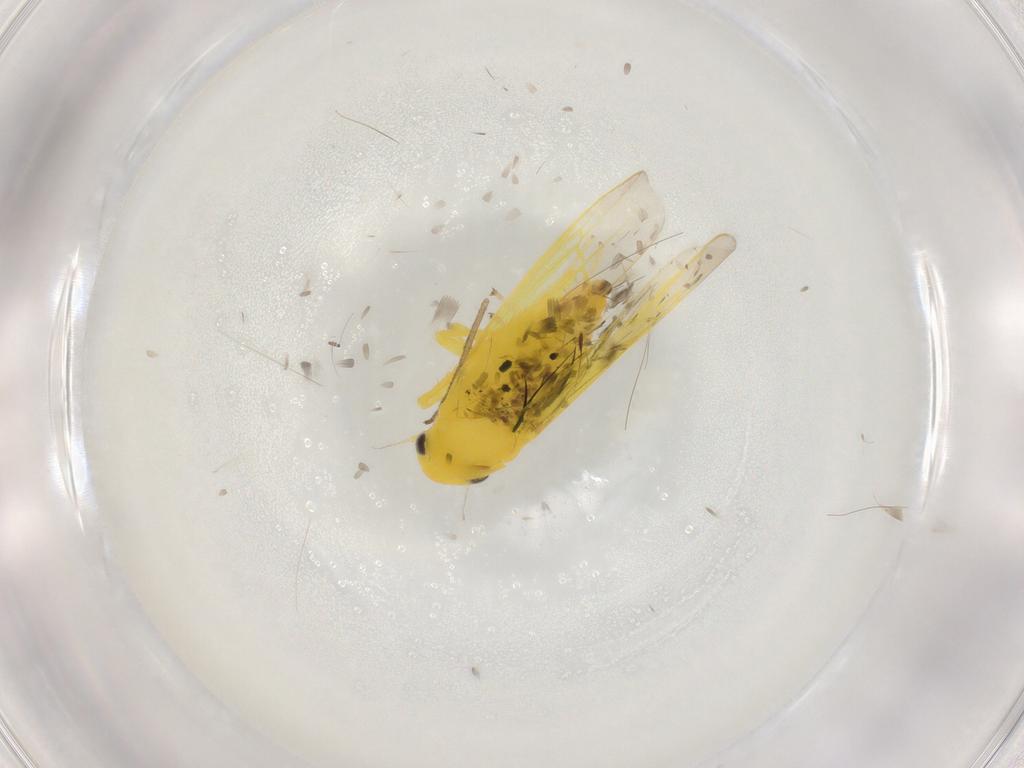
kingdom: Animalia
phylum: Arthropoda
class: Insecta
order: Hemiptera
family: Cicadellidae
